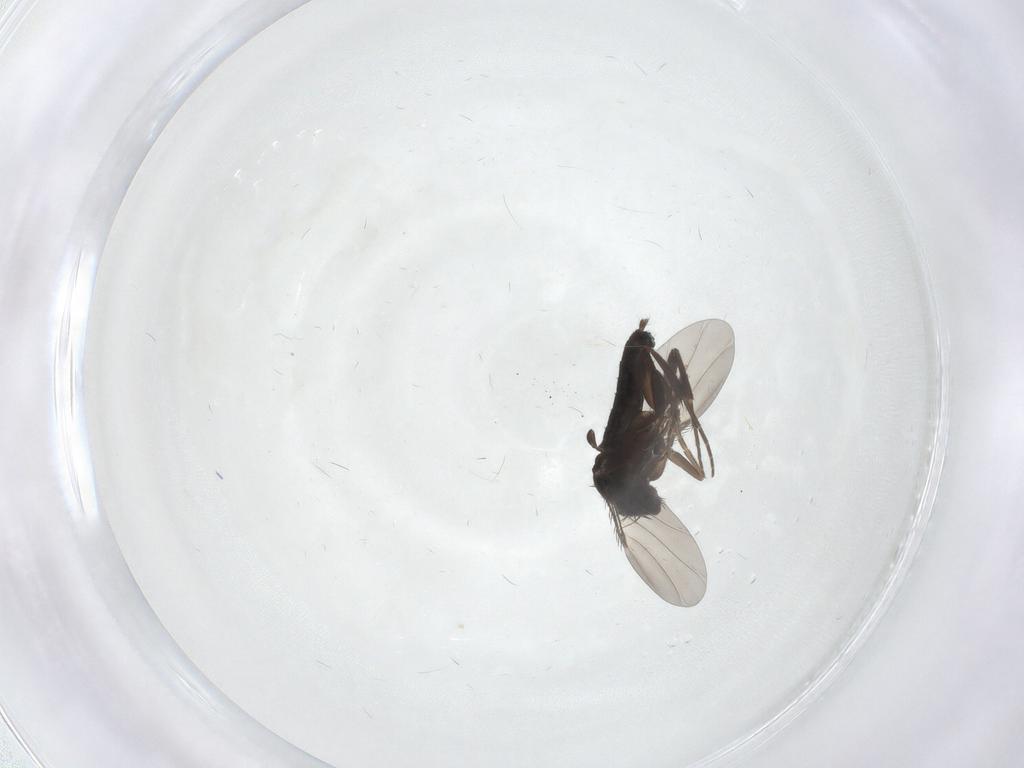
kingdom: Animalia
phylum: Arthropoda
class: Insecta
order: Diptera
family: Phoridae
